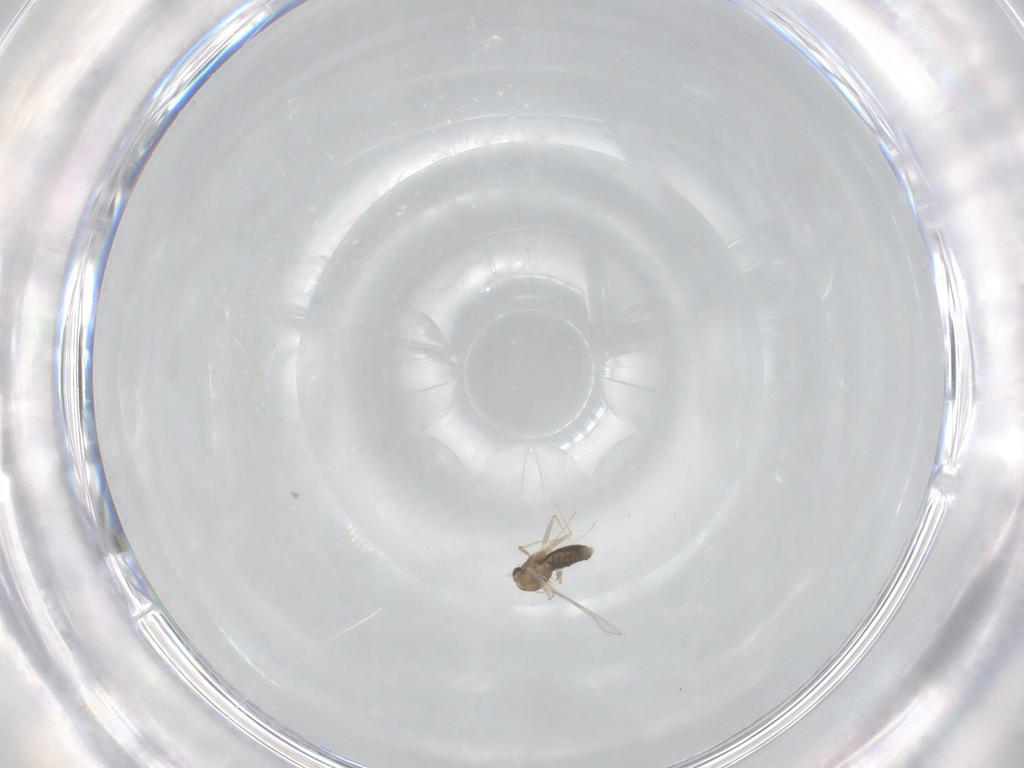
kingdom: Animalia
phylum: Arthropoda
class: Insecta
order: Diptera
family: Chironomidae
